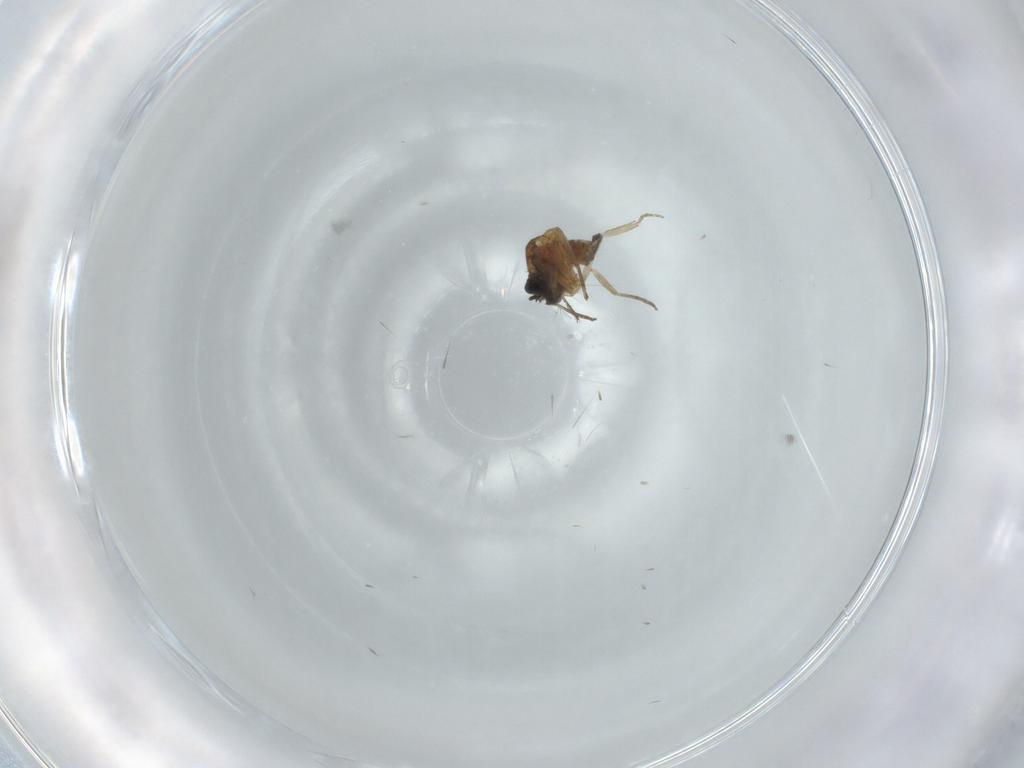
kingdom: Animalia
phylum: Arthropoda
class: Insecta
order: Diptera
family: Ceratopogonidae
